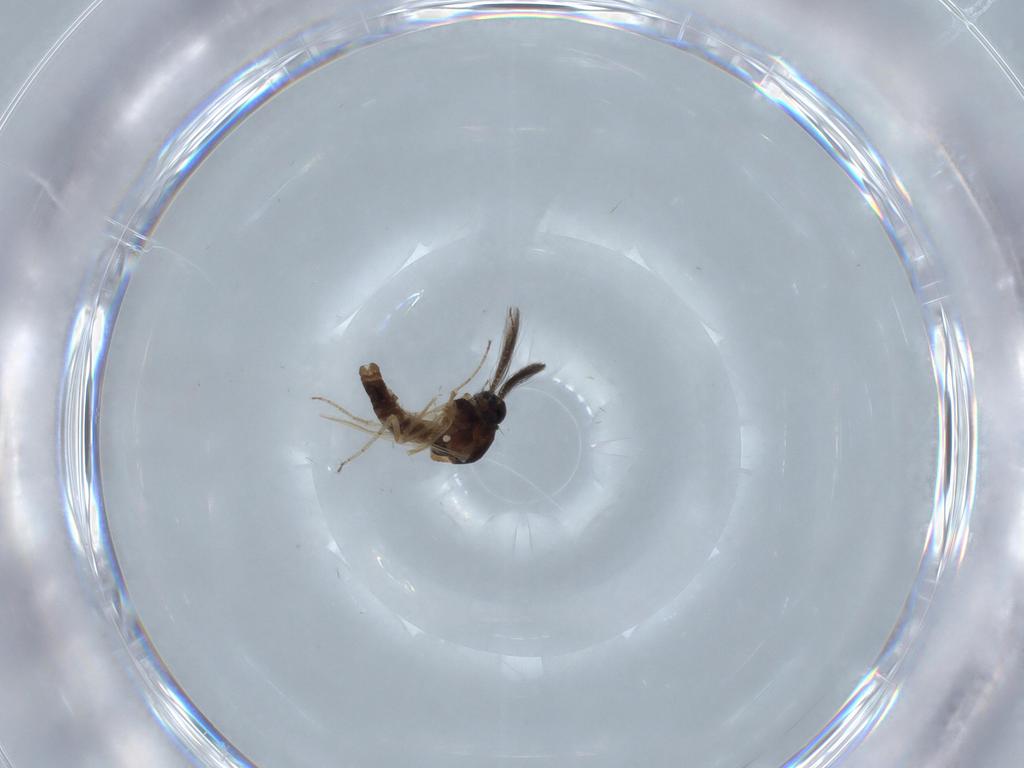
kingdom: Animalia
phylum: Arthropoda
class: Insecta
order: Diptera
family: Ceratopogonidae
